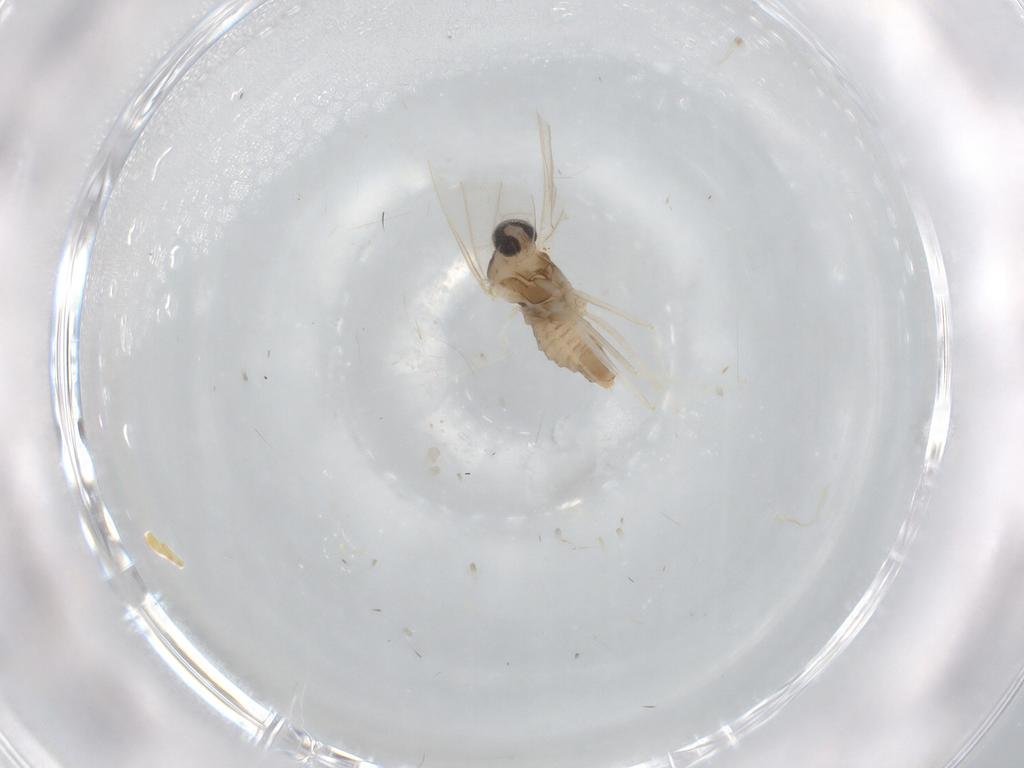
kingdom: Animalia
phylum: Arthropoda
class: Insecta
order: Diptera
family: Cecidomyiidae
